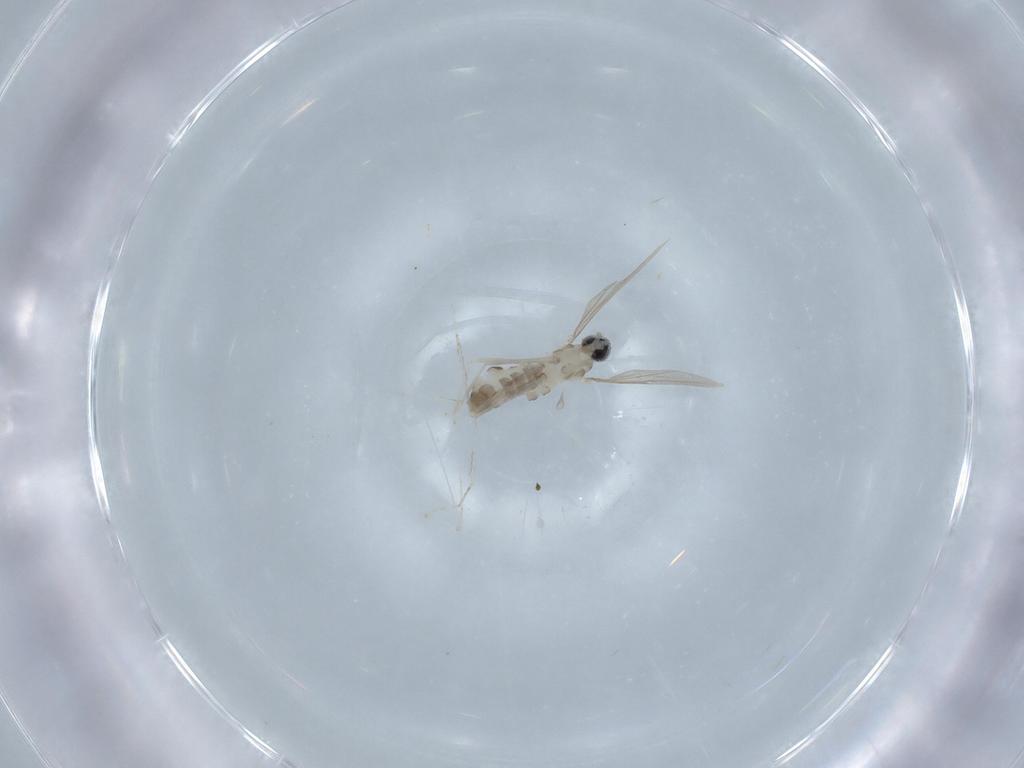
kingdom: Animalia
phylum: Arthropoda
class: Insecta
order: Diptera
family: Cecidomyiidae
